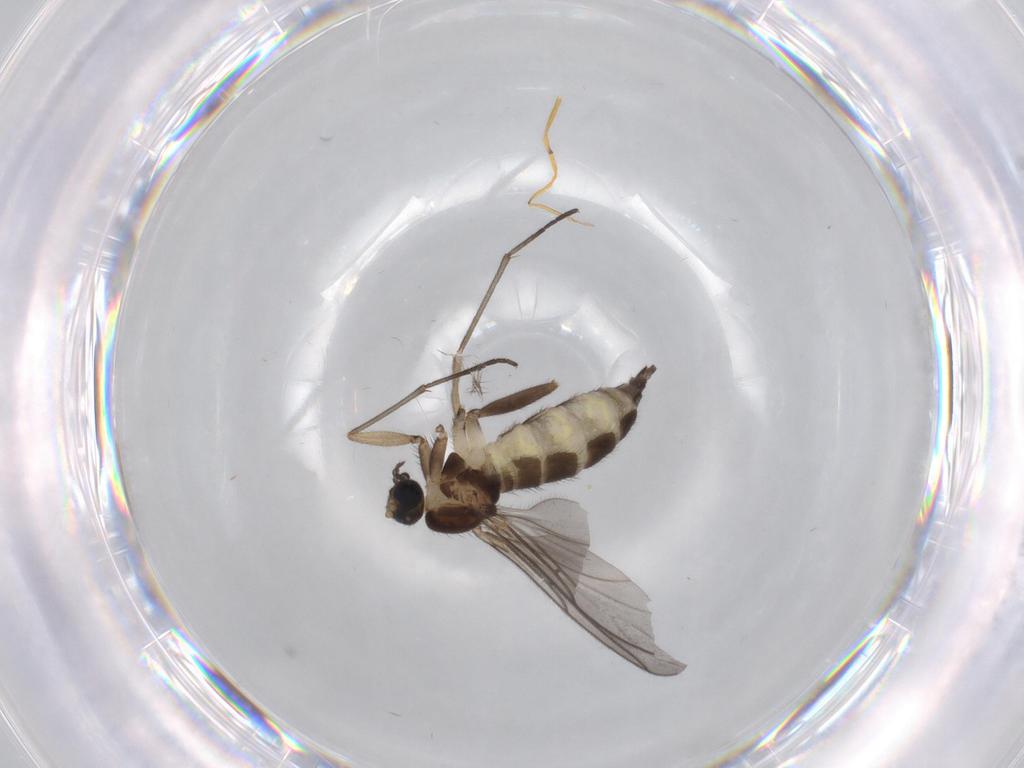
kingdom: Animalia
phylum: Arthropoda
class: Insecta
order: Diptera
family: Sciaridae
